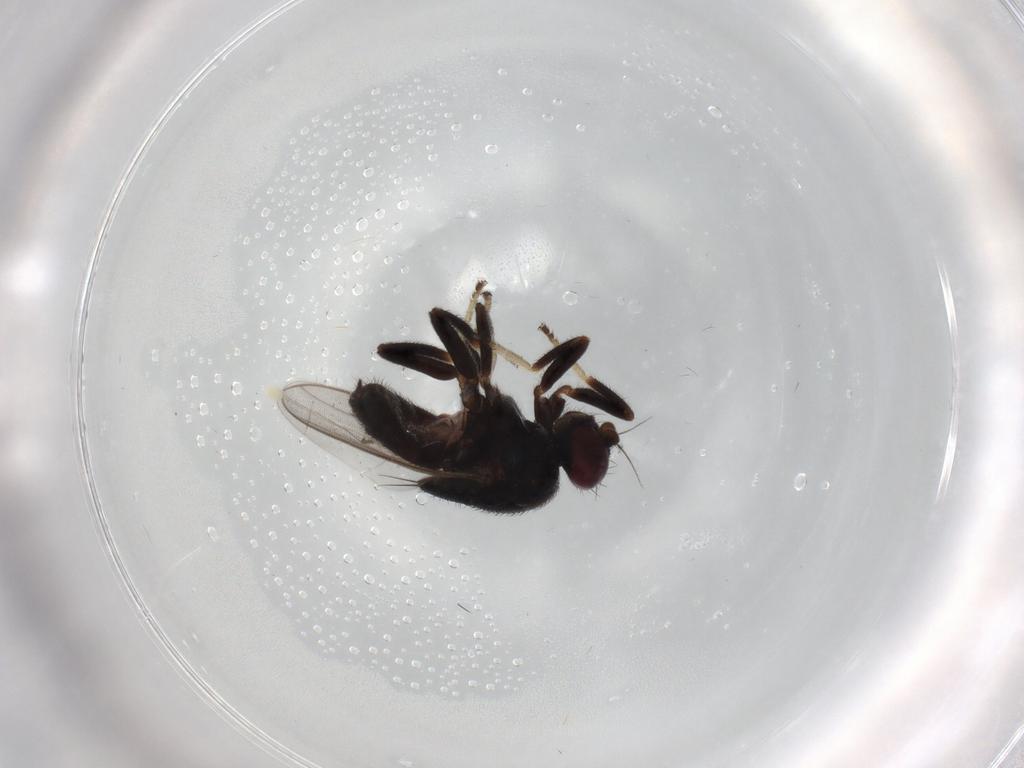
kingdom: Animalia
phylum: Arthropoda
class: Insecta
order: Diptera
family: Chloropidae
